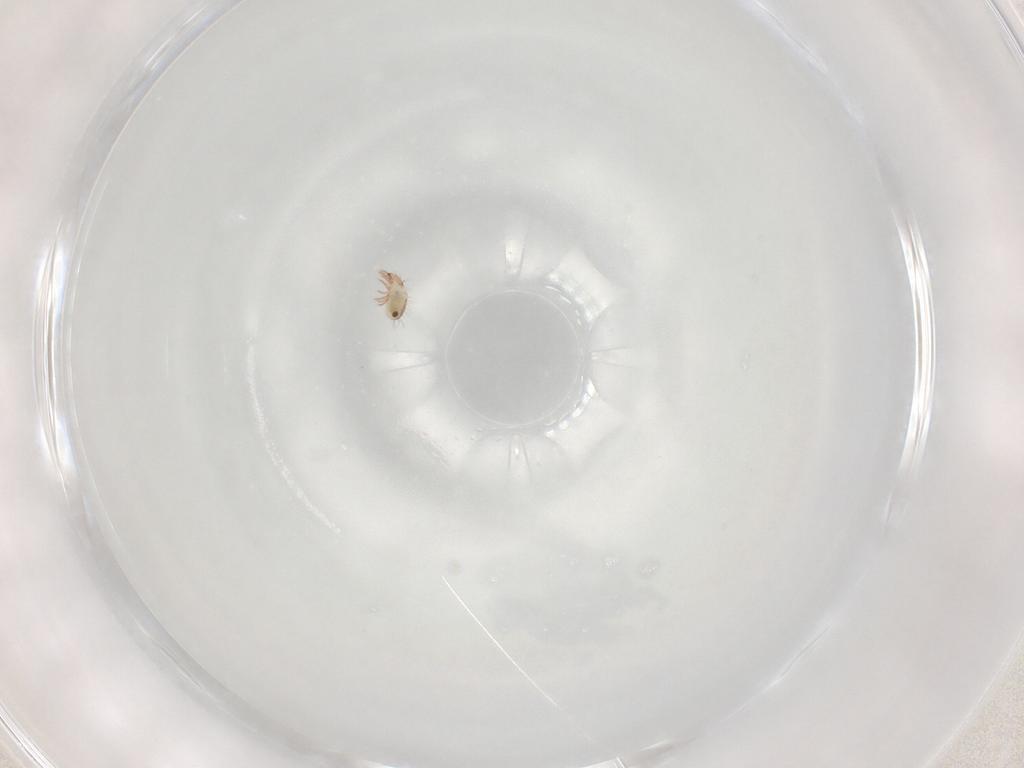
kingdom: Animalia
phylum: Arthropoda
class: Arachnida
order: Sarcoptiformes
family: Humerobatidae
